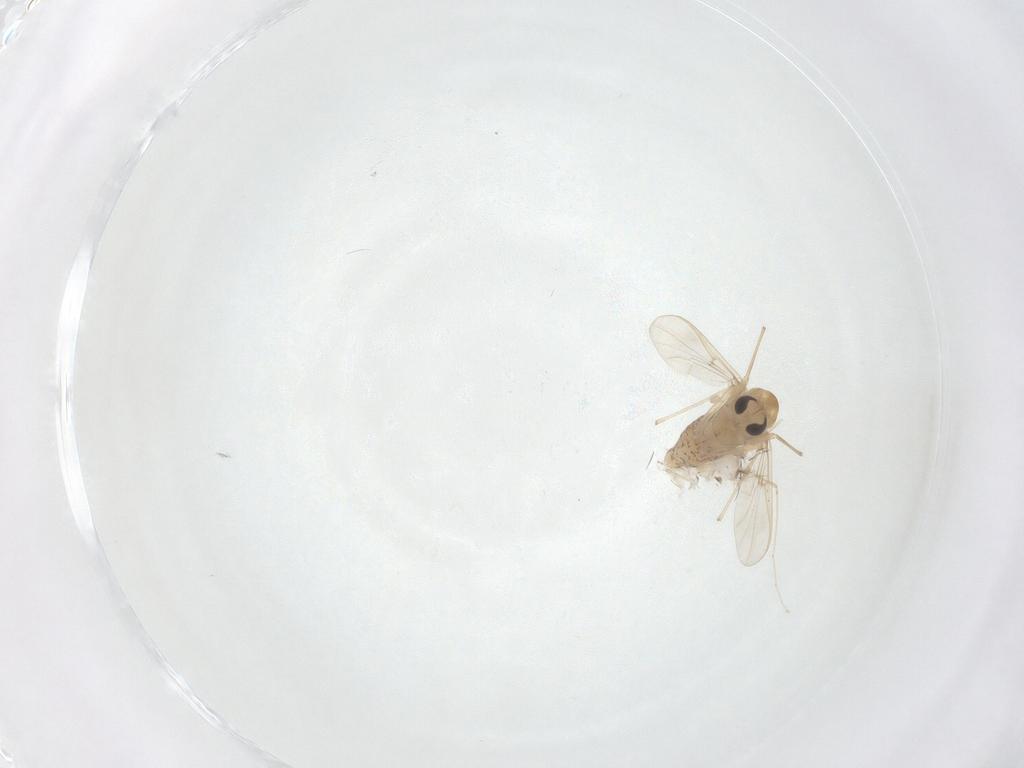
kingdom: Animalia
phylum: Arthropoda
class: Insecta
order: Diptera
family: Chironomidae
